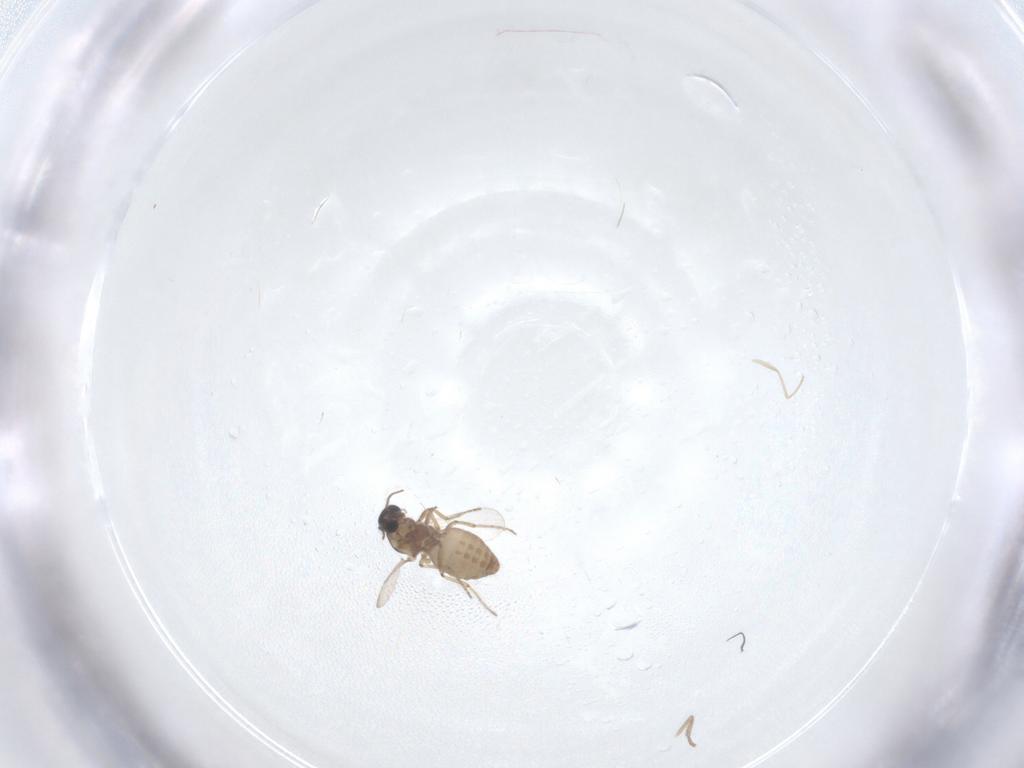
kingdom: Animalia
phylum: Arthropoda
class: Insecta
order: Diptera
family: Ceratopogonidae
